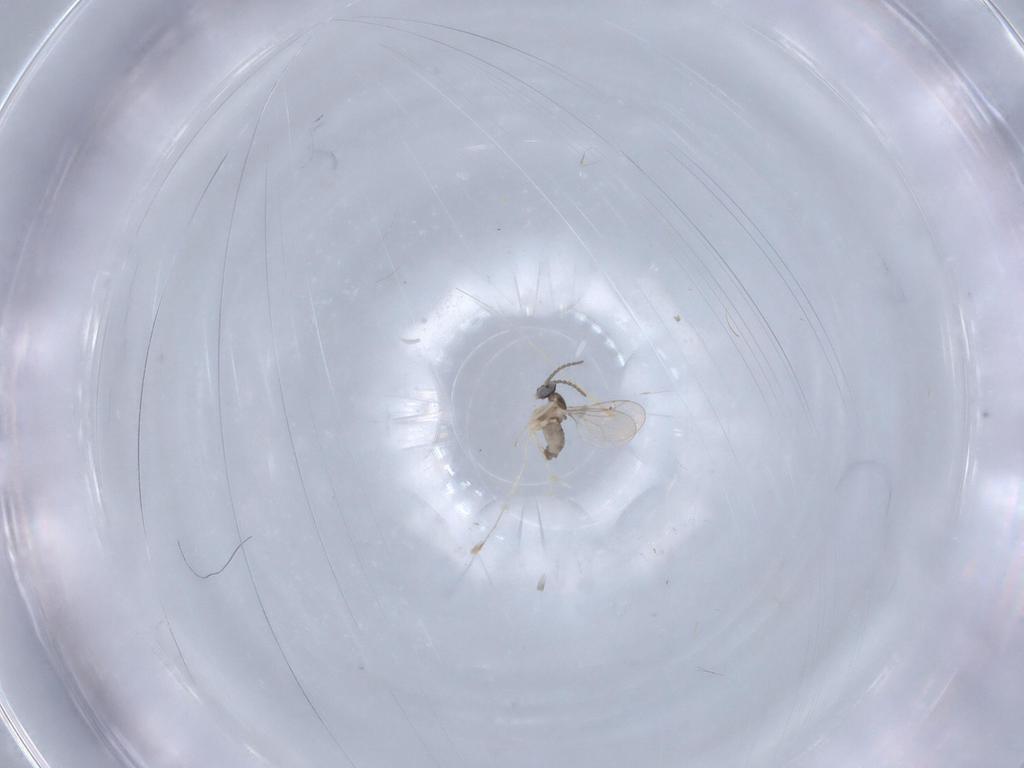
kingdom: Animalia
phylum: Arthropoda
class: Insecta
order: Diptera
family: Cecidomyiidae
